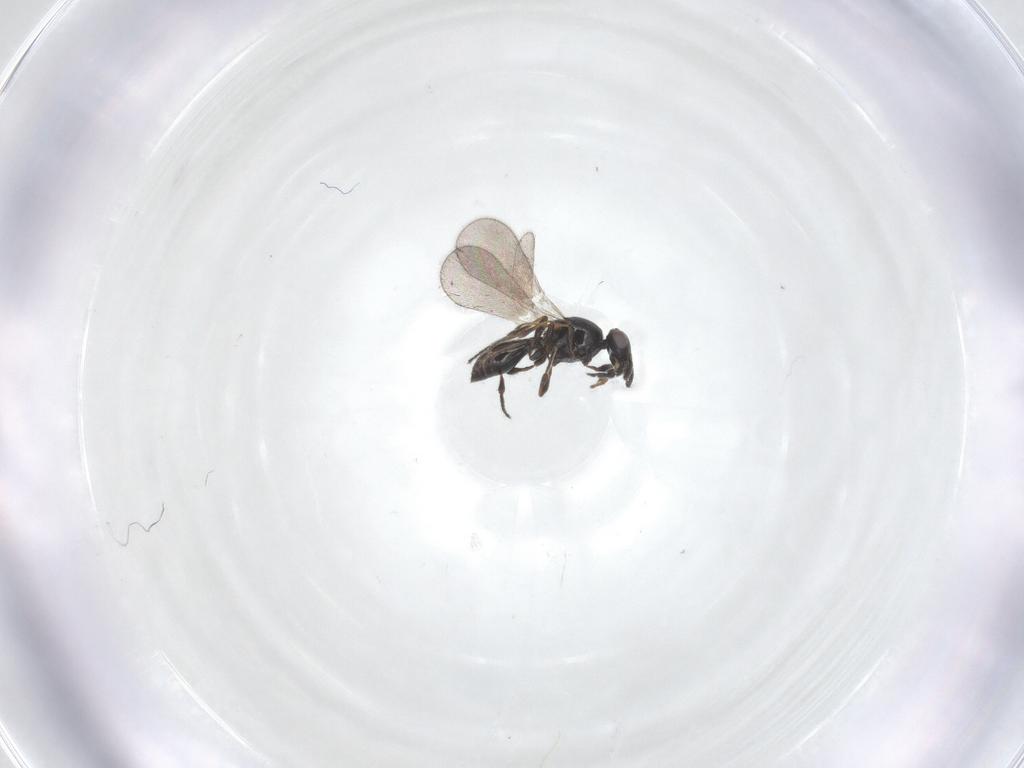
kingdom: Animalia
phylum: Arthropoda
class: Insecta
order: Hymenoptera
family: Platygastridae
